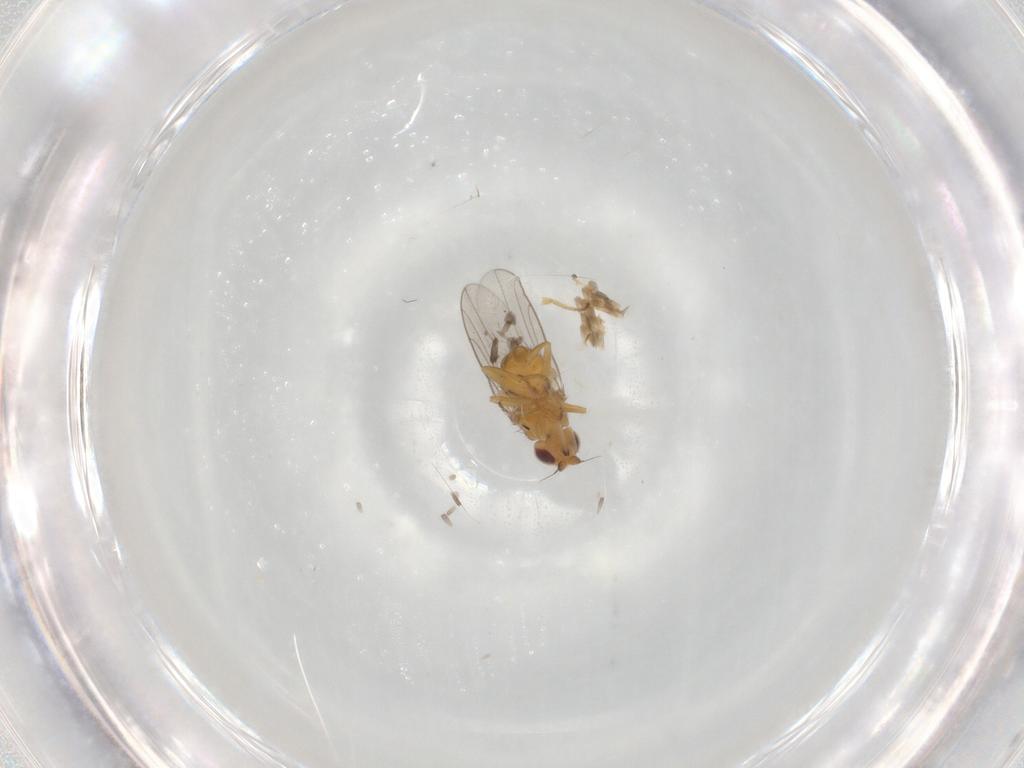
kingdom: Animalia
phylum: Arthropoda
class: Insecta
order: Diptera
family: Chloropidae
